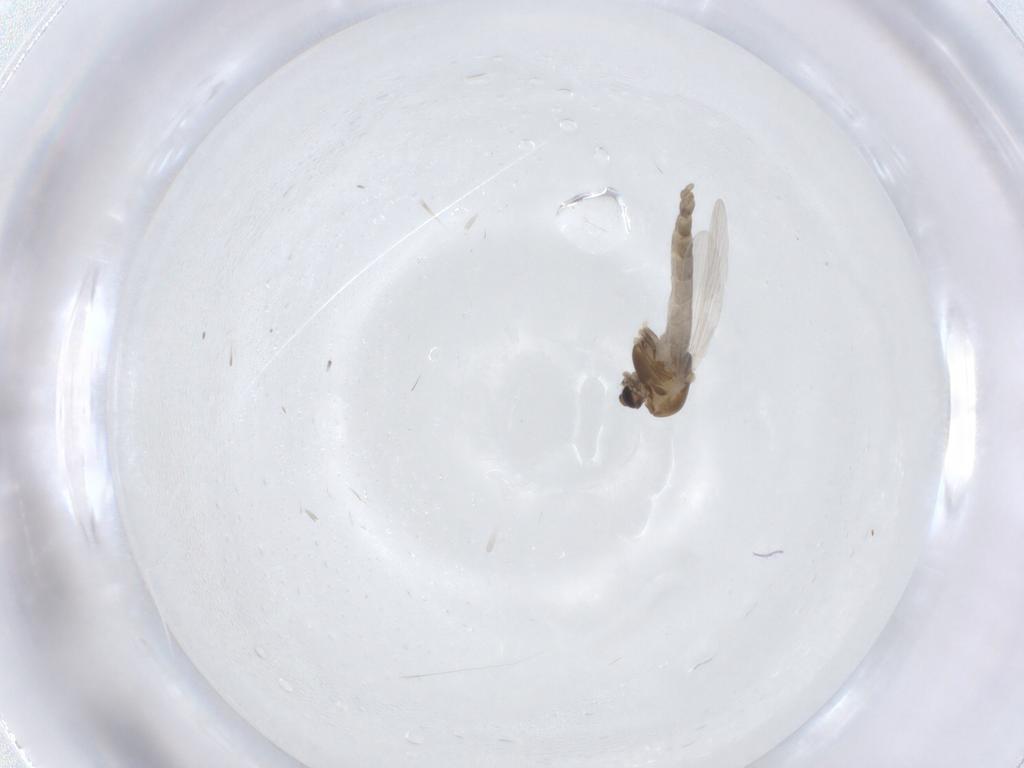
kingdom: Animalia
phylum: Arthropoda
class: Insecta
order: Diptera
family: Chironomidae
